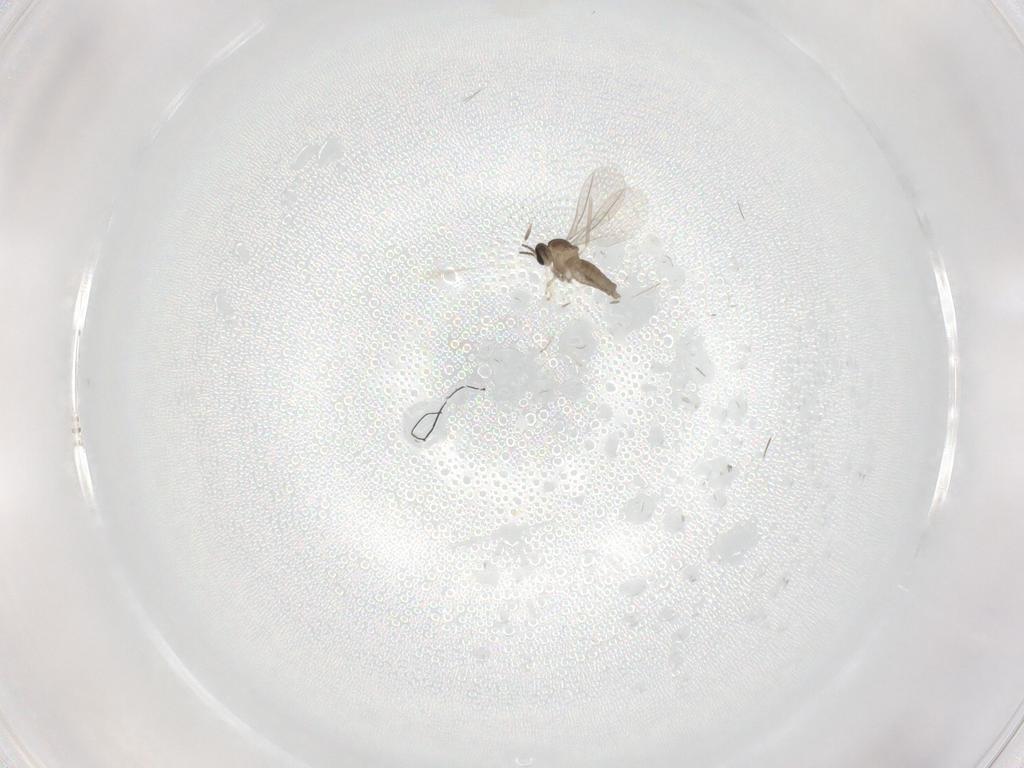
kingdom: Animalia
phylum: Arthropoda
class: Insecta
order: Diptera
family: Cecidomyiidae
